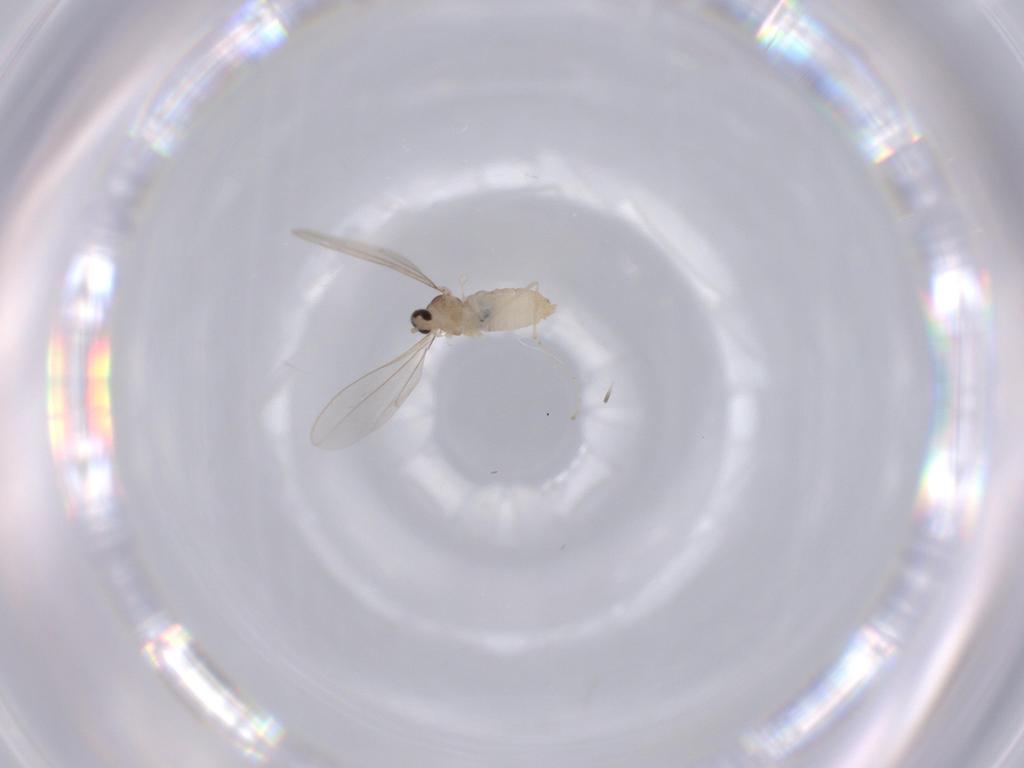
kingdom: Animalia
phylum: Arthropoda
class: Insecta
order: Diptera
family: Cecidomyiidae
